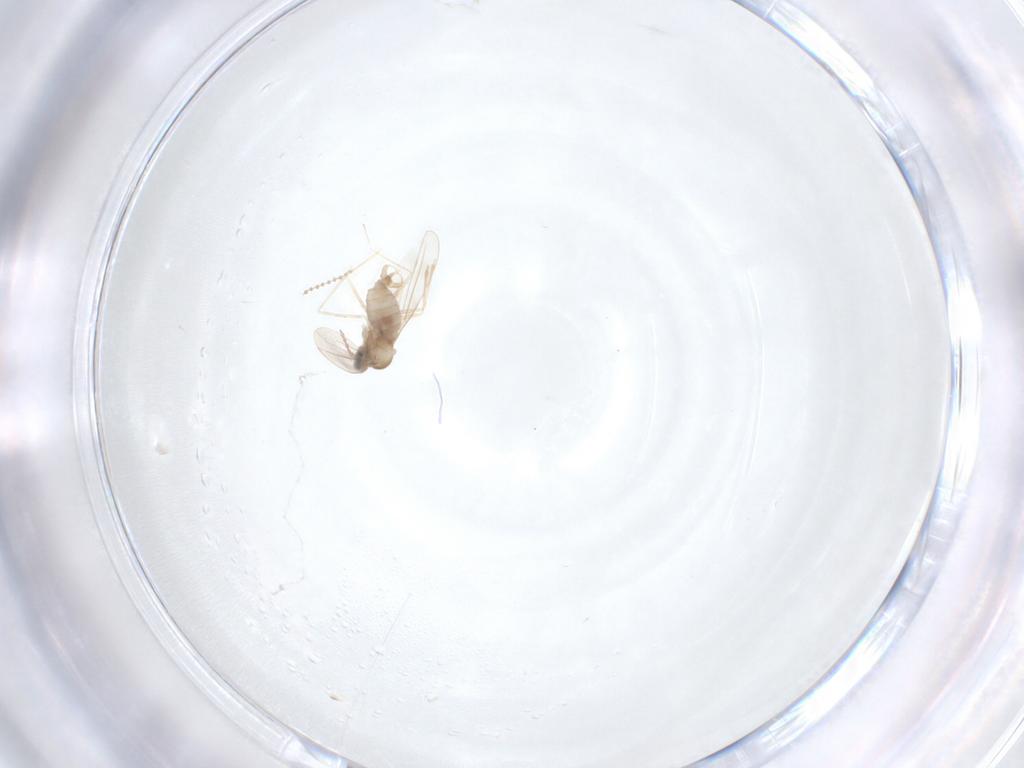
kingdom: Animalia
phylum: Arthropoda
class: Insecta
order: Diptera
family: Cecidomyiidae
